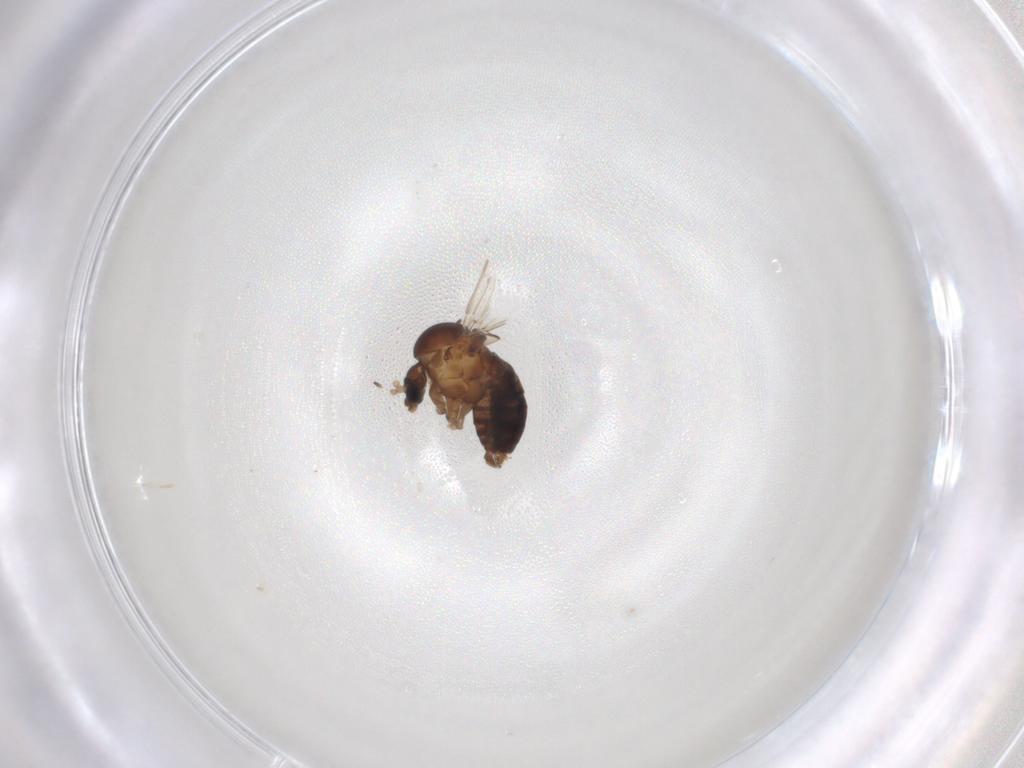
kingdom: Animalia
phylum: Arthropoda
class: Insecta
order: Diptera
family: Psychodidae
